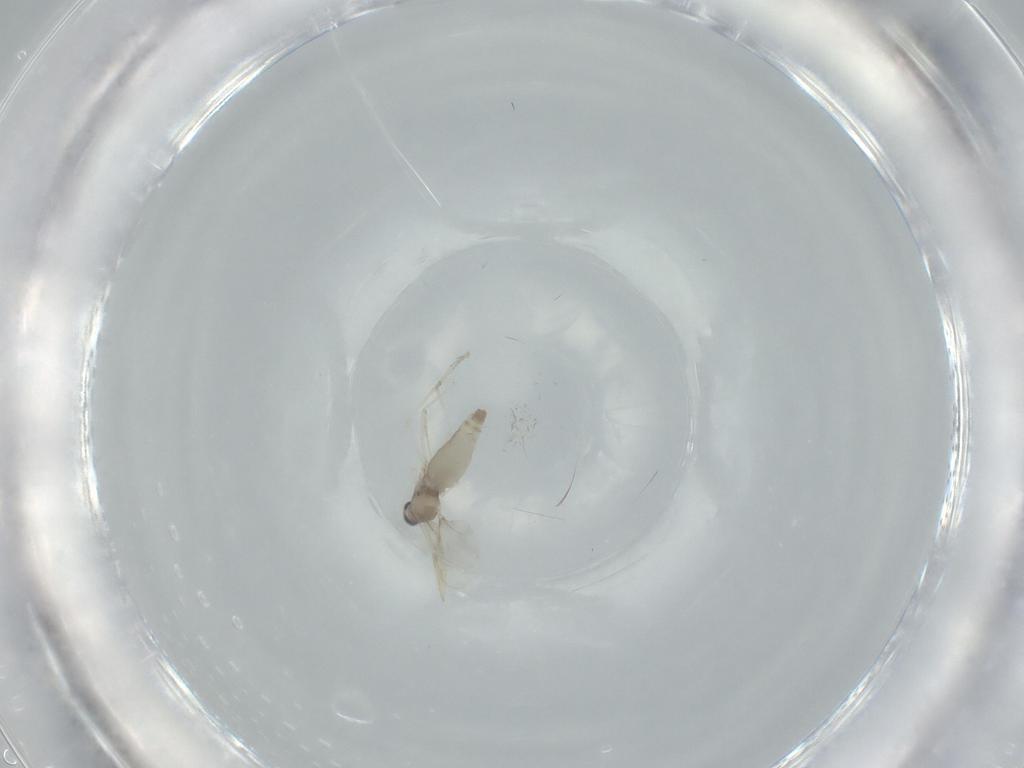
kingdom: Animalia
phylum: Arthropoda
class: Insecta
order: Diptera
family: Cecidomyiidae
